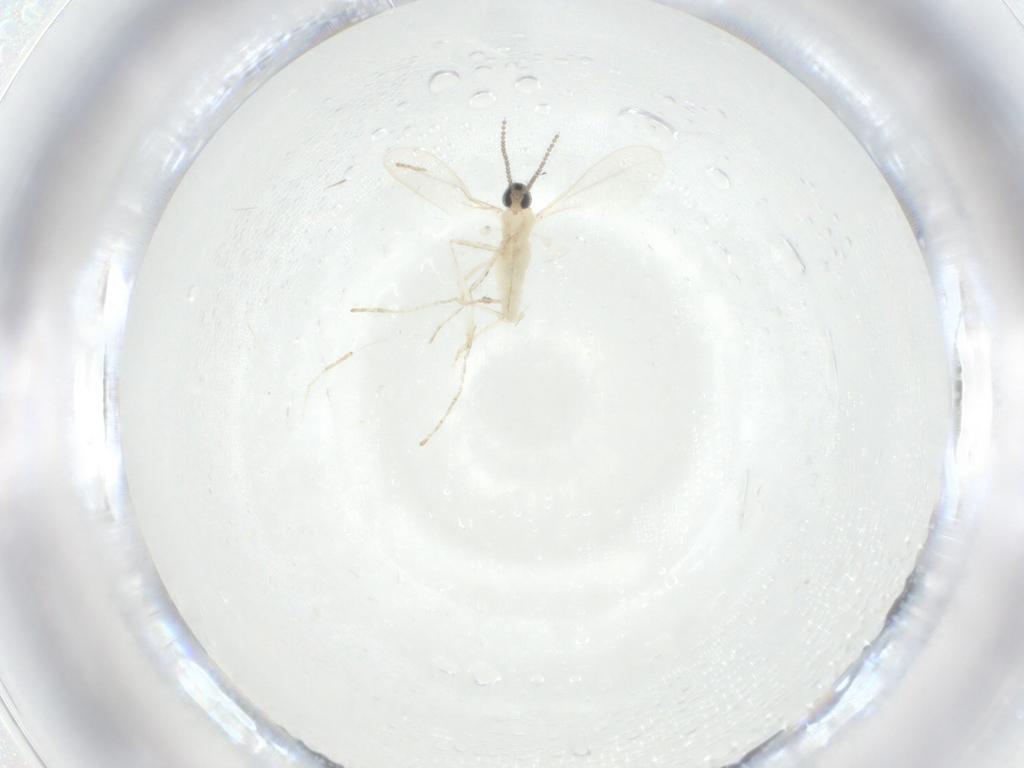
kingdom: Animalia
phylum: Arthropoda
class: Insecta
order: Diptera
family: Cecidomyiidae
